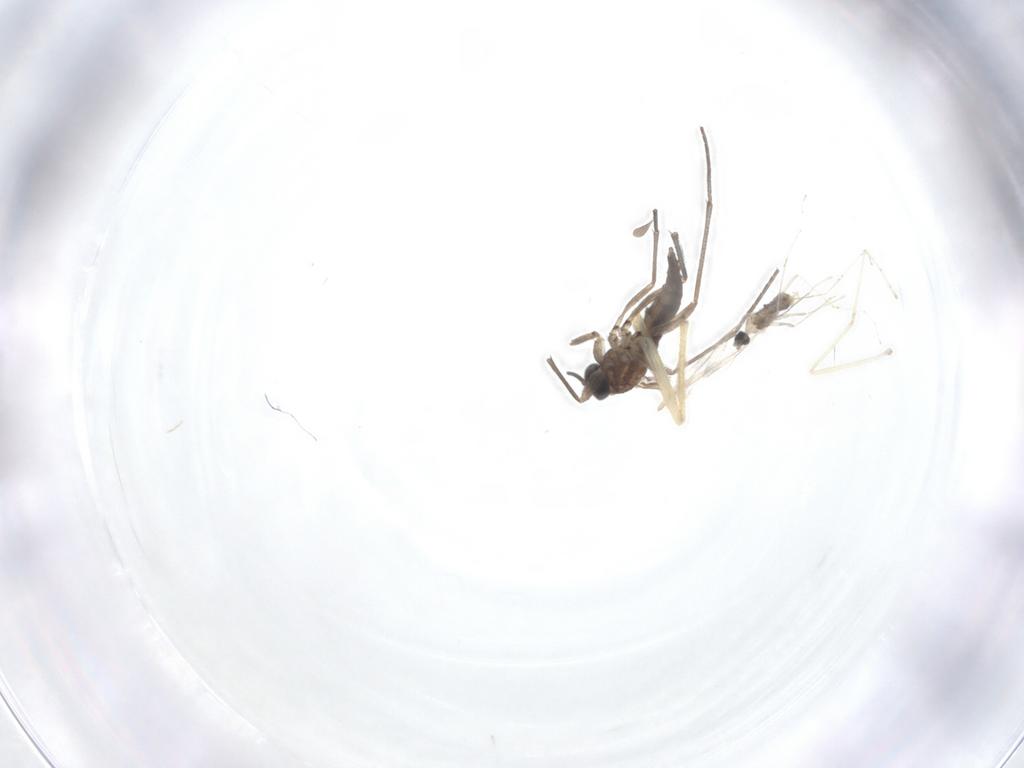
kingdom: Animalia
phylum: Arthropoda
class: Insecta
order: Diptera
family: Sciaridae
